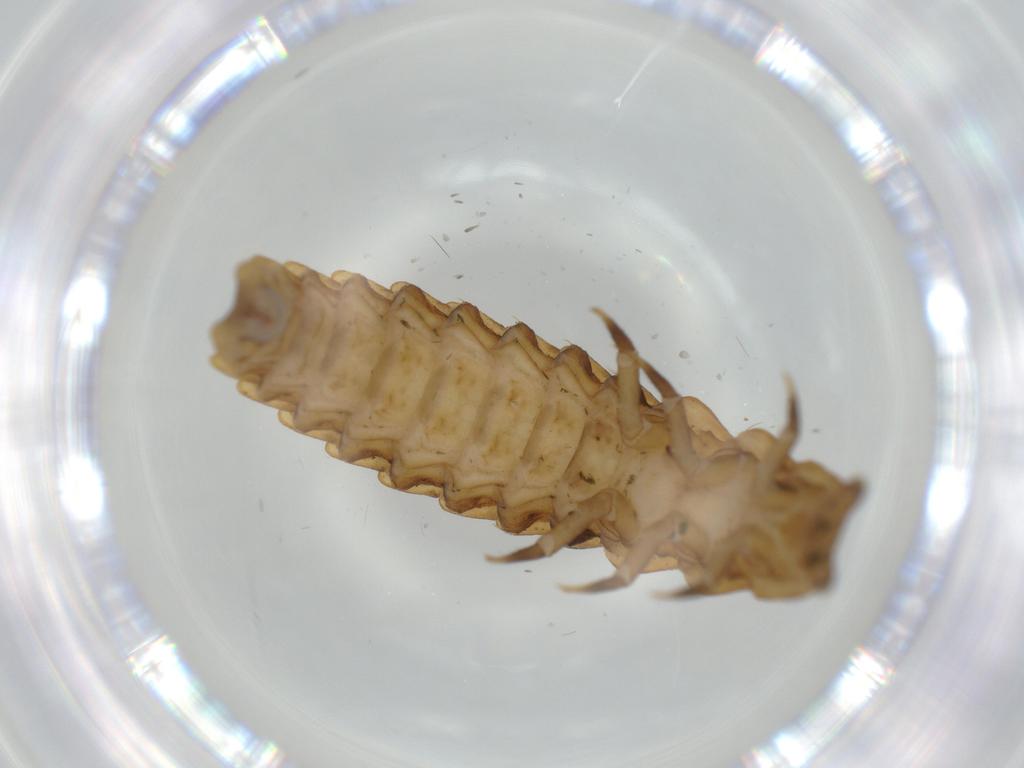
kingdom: Animalia
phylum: Arthropoda
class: Insecta
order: Coleoptera
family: Lycidae
